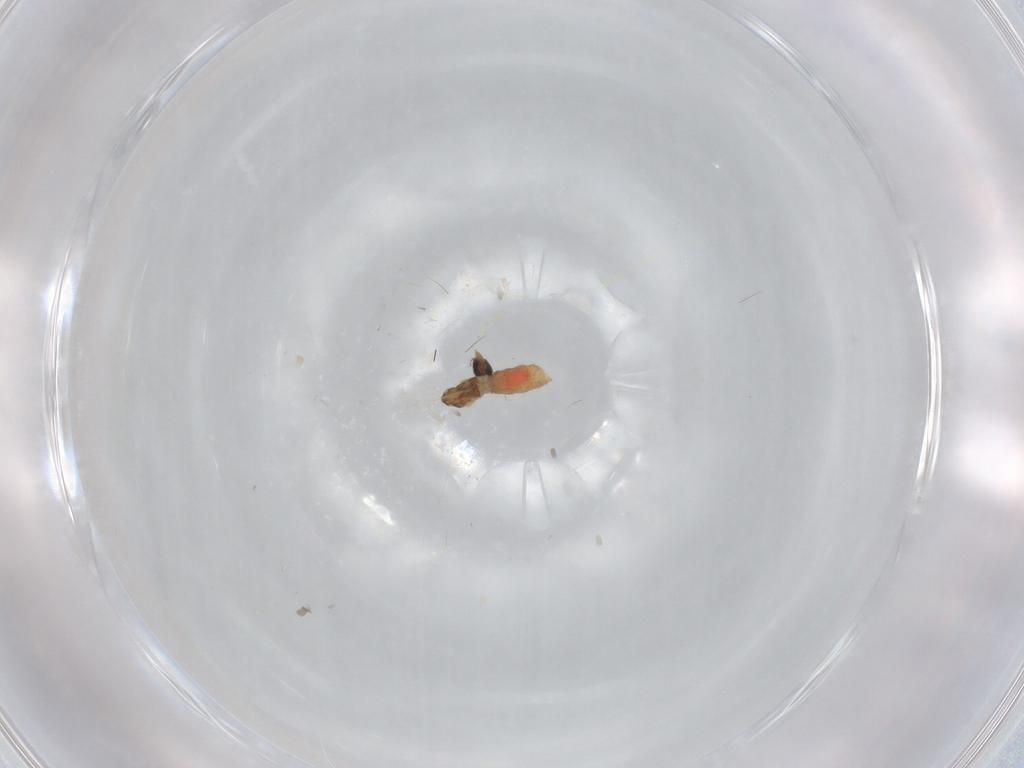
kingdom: Animalia
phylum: Arthropoda
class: Insecta
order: Diptera
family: Cecidomyiidae
